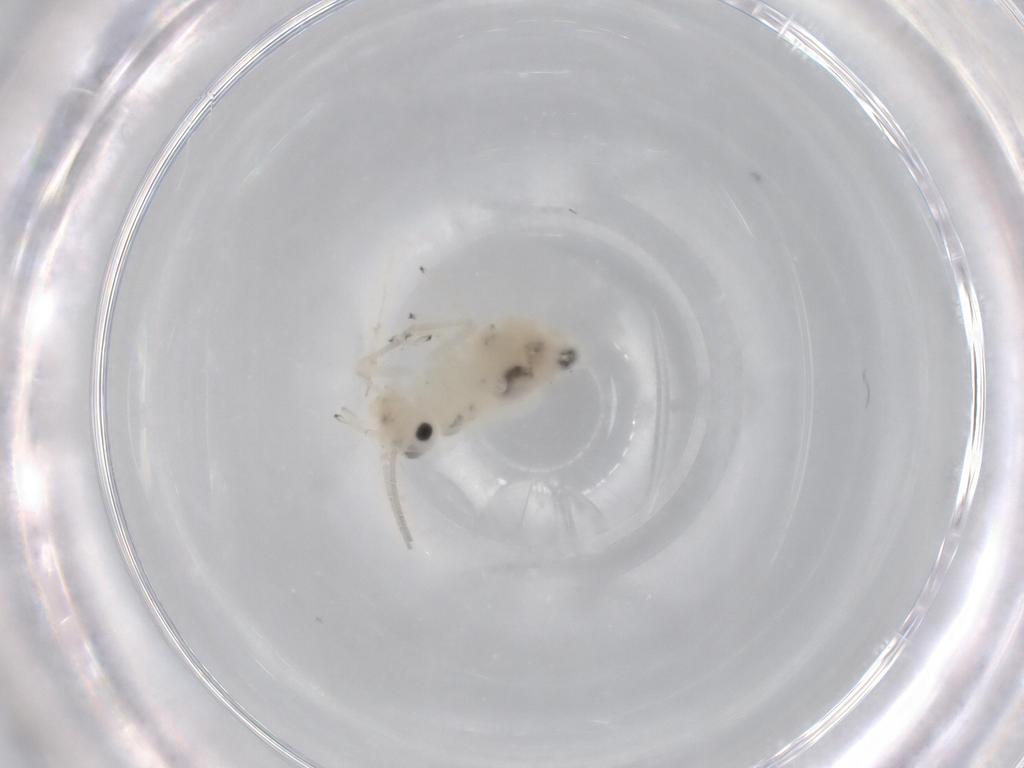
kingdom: Animalia
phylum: Arthropoda
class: Insecta
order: Psocodea
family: Caeciliusidae
